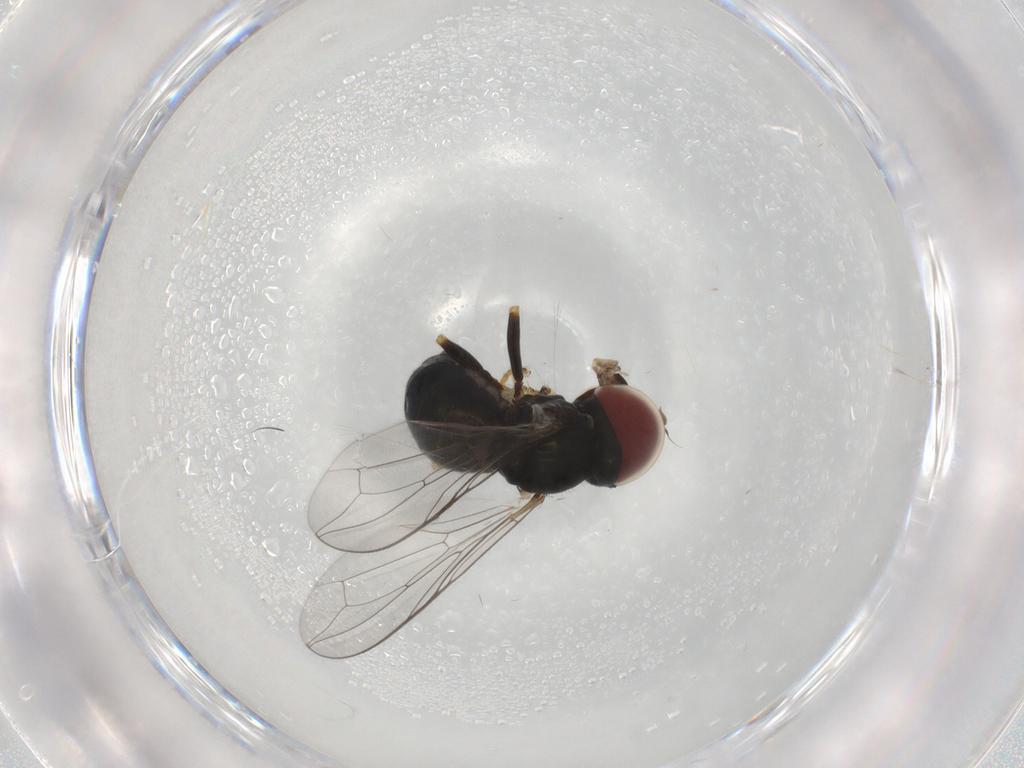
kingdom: Animalia
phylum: Arthropoda
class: Insecta
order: Diptera
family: Pipunculidae
